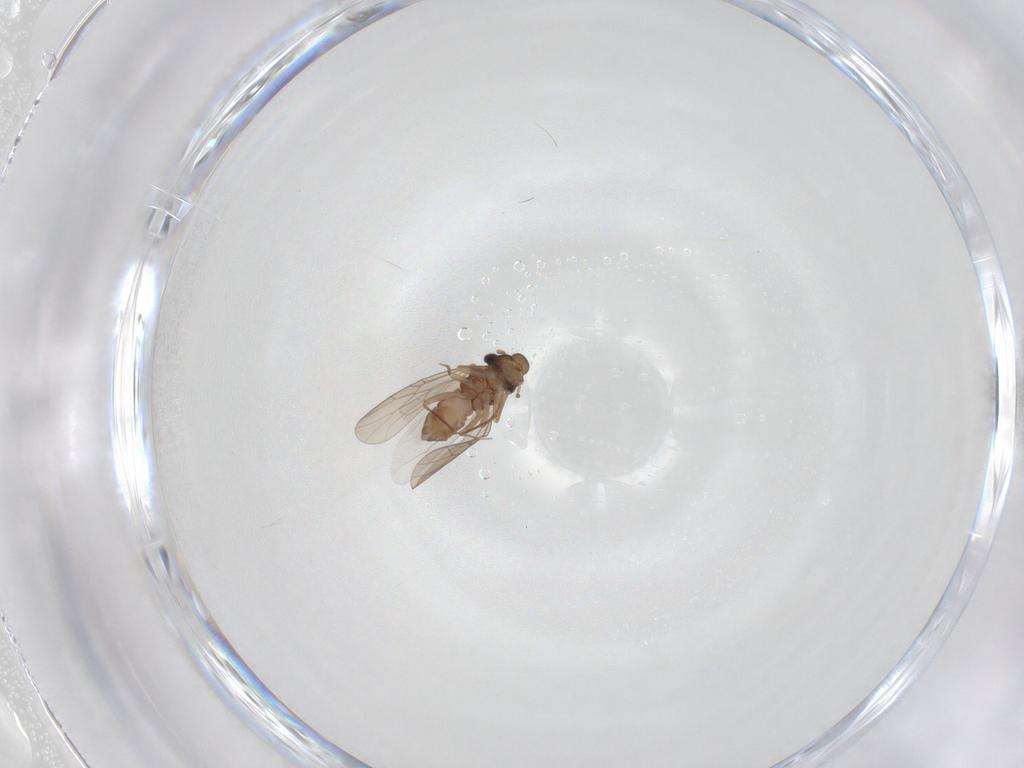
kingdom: Animalia
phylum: Arthropoda
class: Insecta
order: Psocodea
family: Lepidopsocidae
